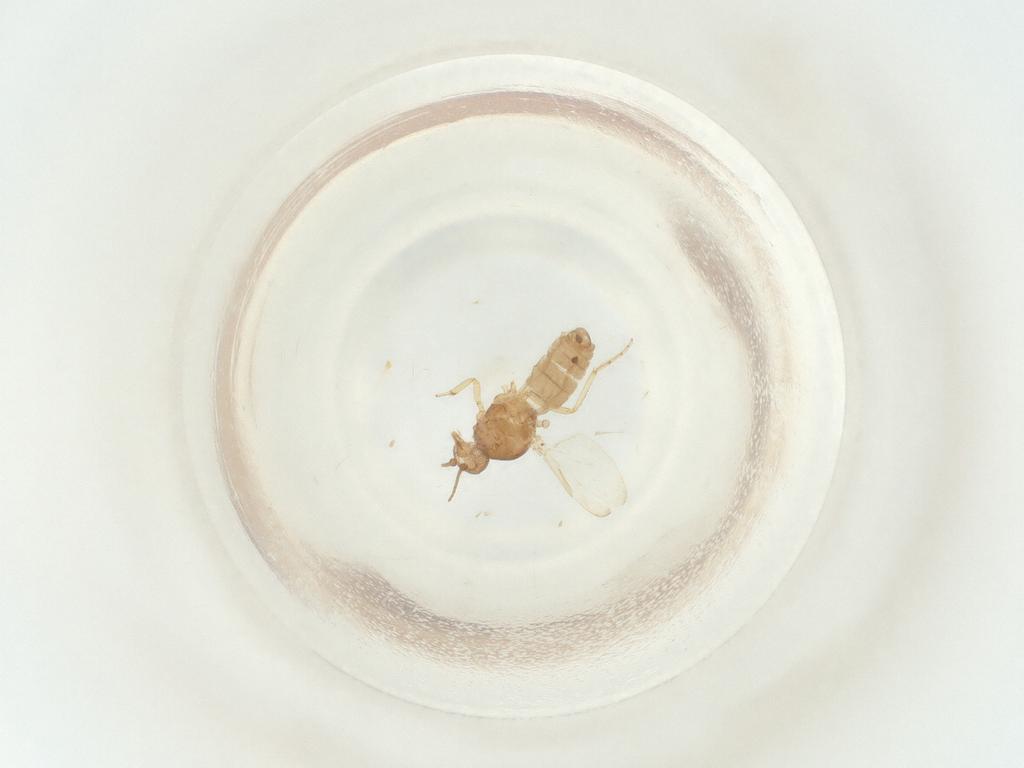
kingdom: Animalia
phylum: Arthropoda
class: Insecta
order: Diptera
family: Ceratopogonidae
